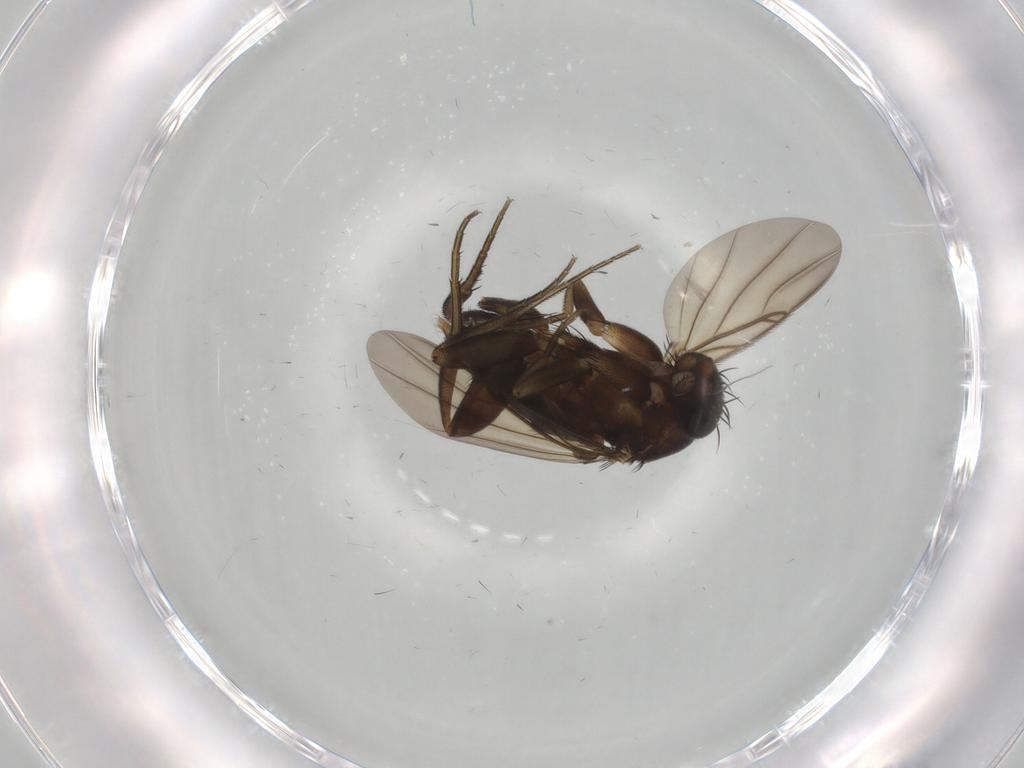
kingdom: Animalia
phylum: Arthropoda
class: Insecta
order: Diptera
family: Phoridae
